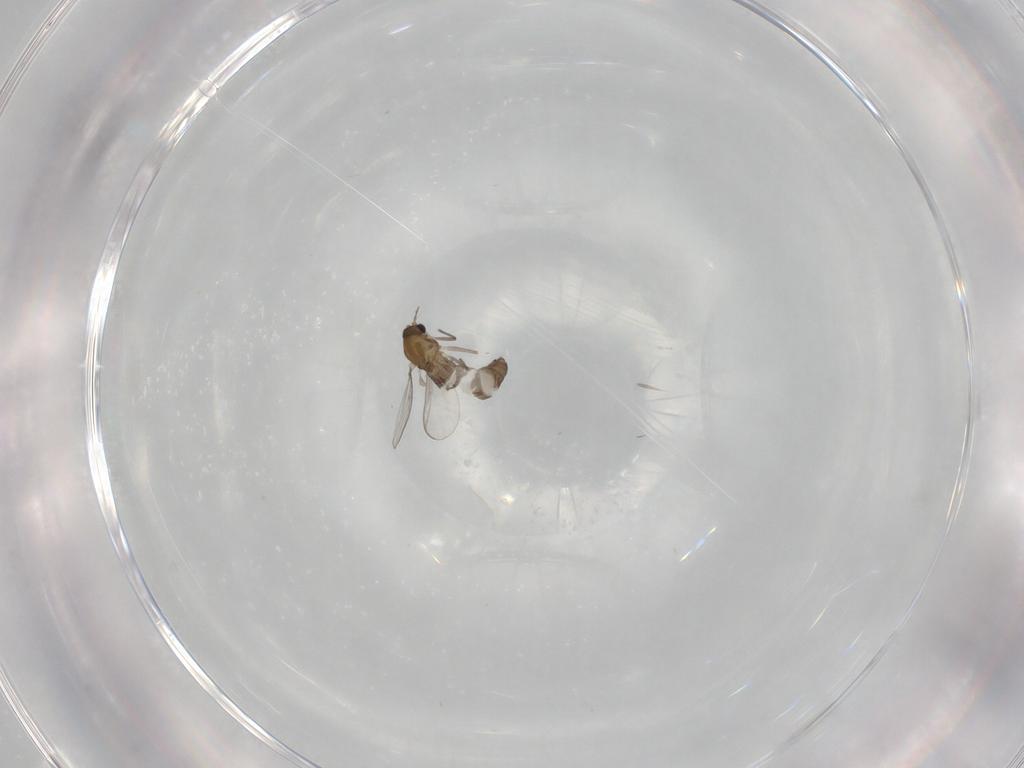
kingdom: Animalia
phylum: Arthropoda
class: Insecta
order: Diptera
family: Chironomidae
